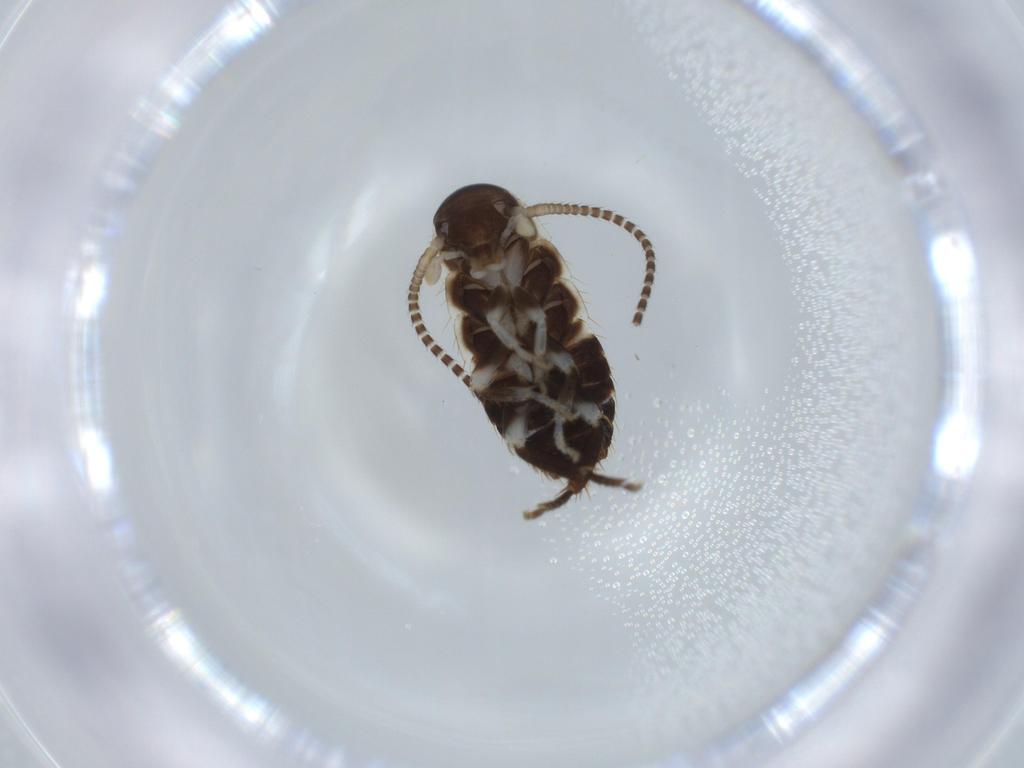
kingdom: Animalia
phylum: Arthropoda
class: Insecta
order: Blattodea
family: Ectobiidae
